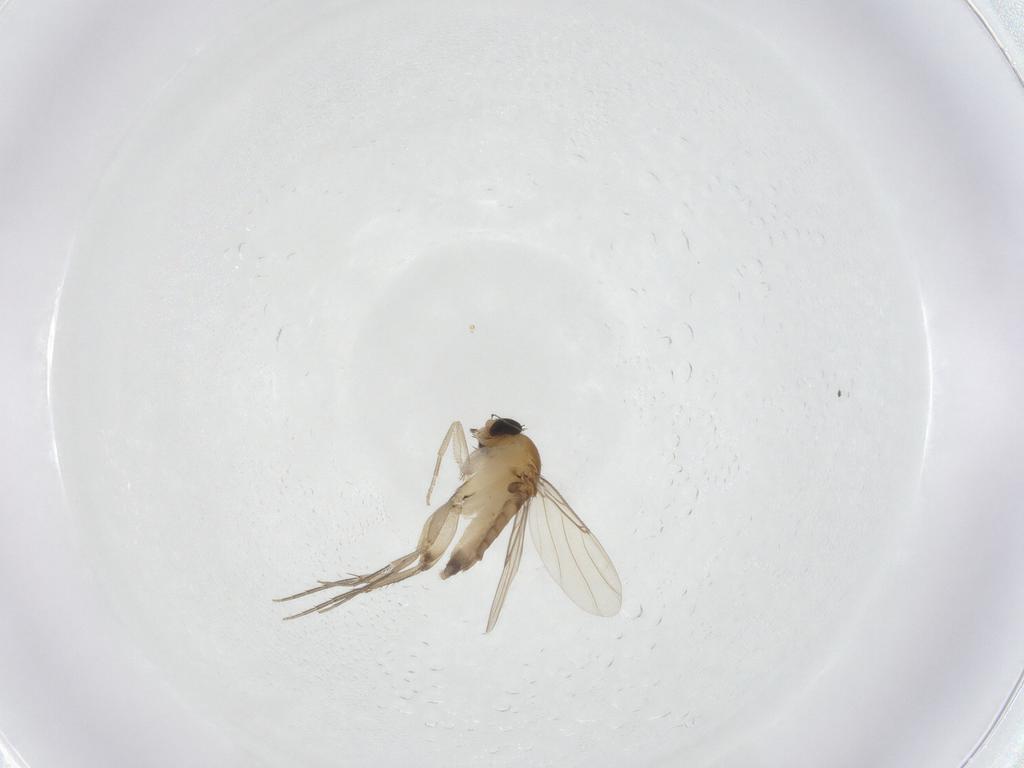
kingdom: Animalia
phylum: Arthropoda
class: Insecta
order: Diptera
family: Phoridae
